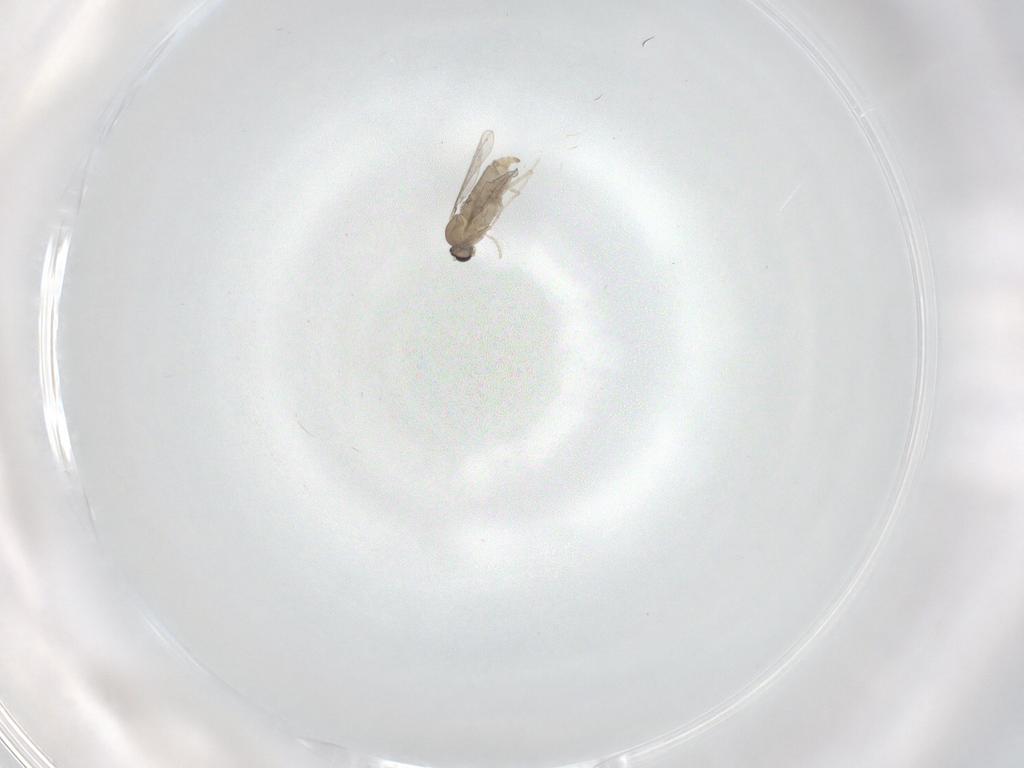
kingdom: Animalia
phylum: Arthropoda
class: Insecta
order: Diptera
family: Cecidomyiidae
